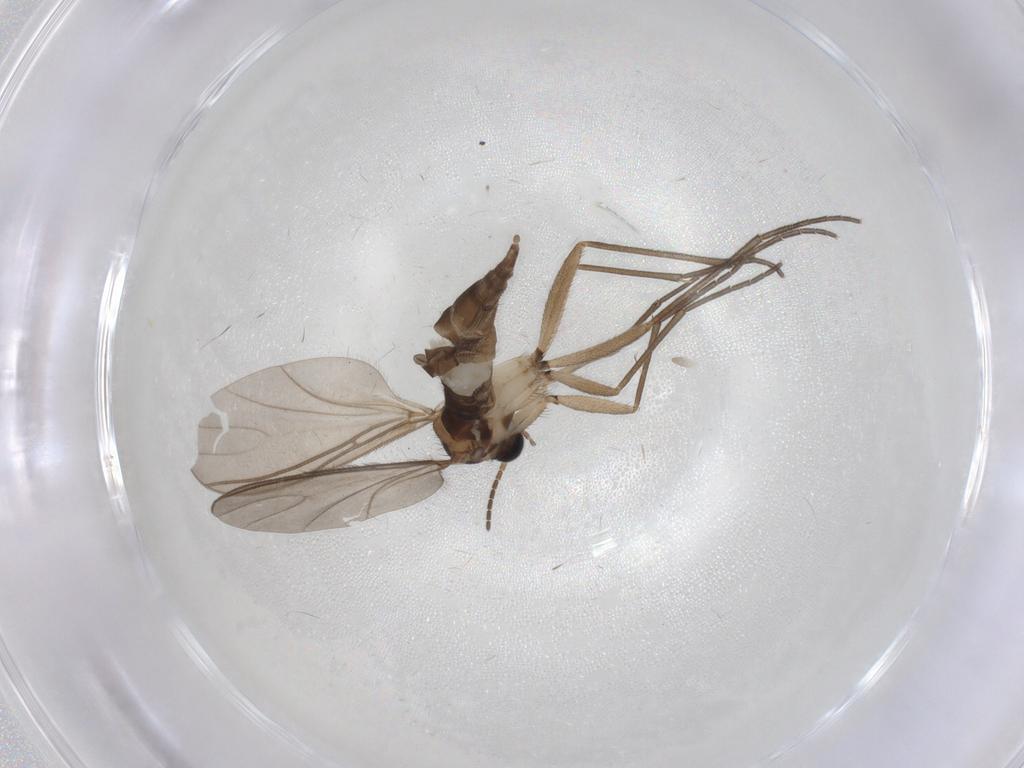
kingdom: Animalia
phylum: Arthropoda
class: Insecta
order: Diptera
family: Sciaridae
